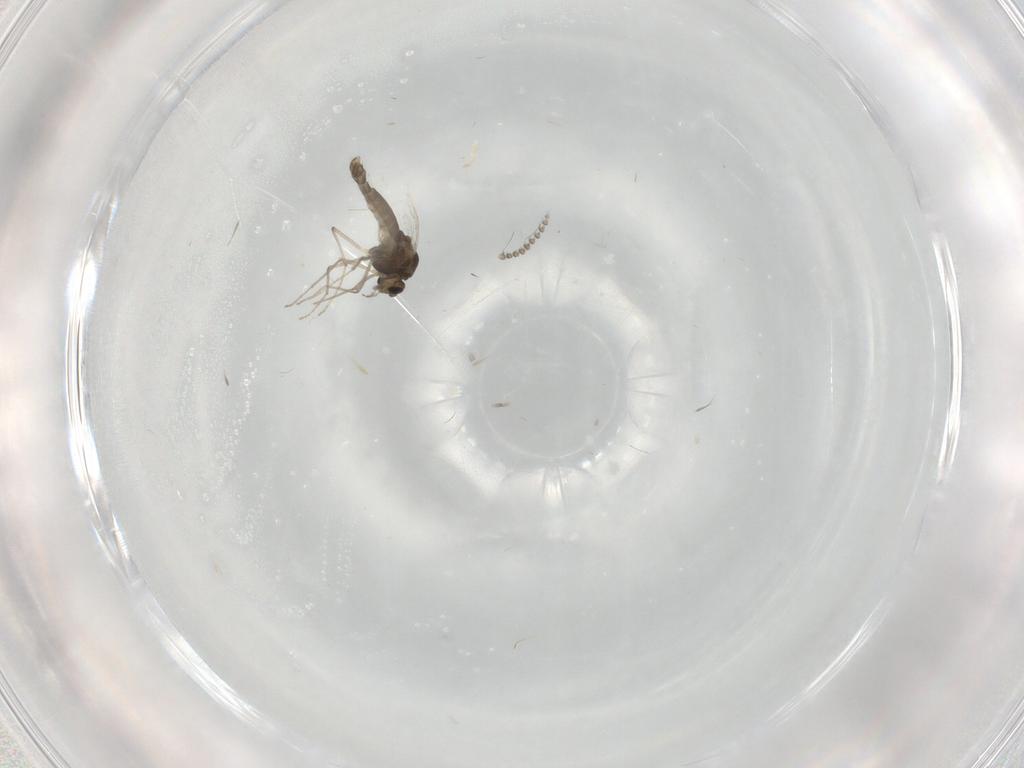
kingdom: Animalia
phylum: Arthropoda
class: Insecta
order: Diptera
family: Chironomidae
